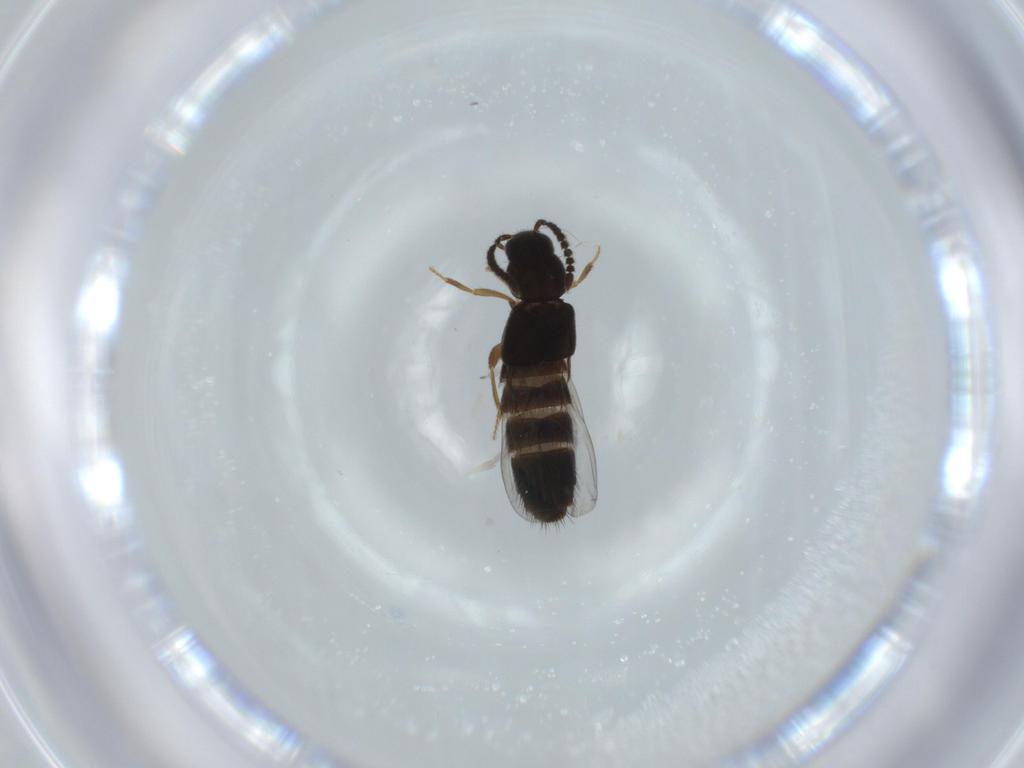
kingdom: Animalia
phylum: Arthropoda
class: Insecta
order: Coleoptera
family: Staphylinidae
